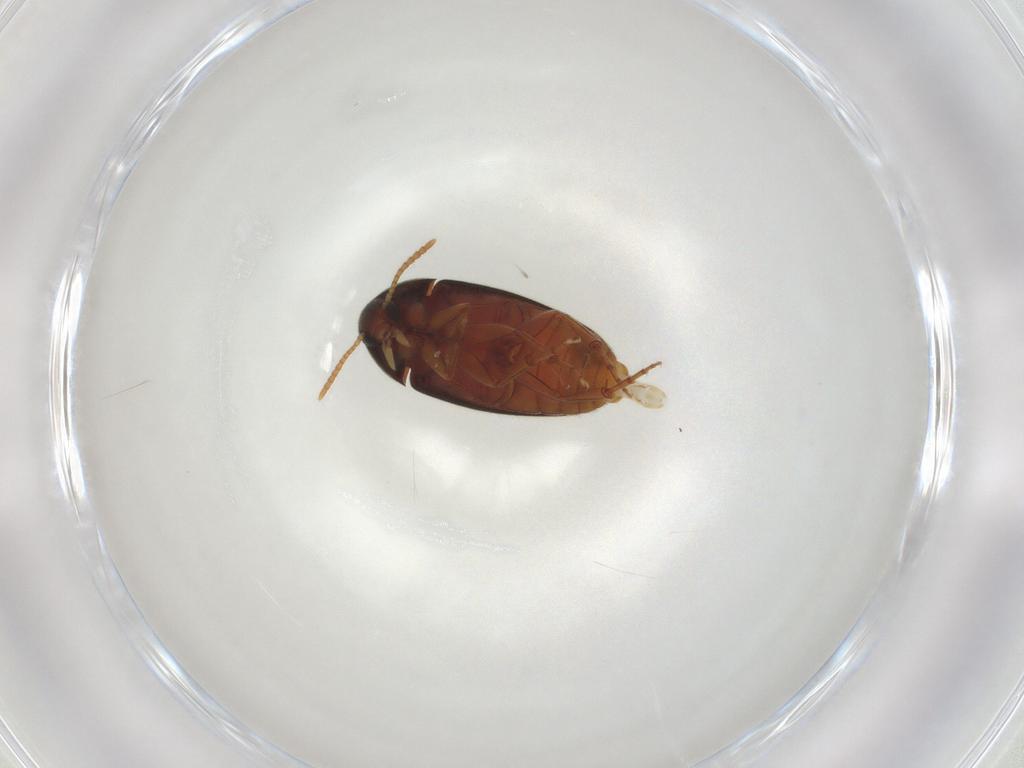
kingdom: Animalia
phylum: Arthropoda
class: Insecta
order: Coleoptera
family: Scraptiidae
